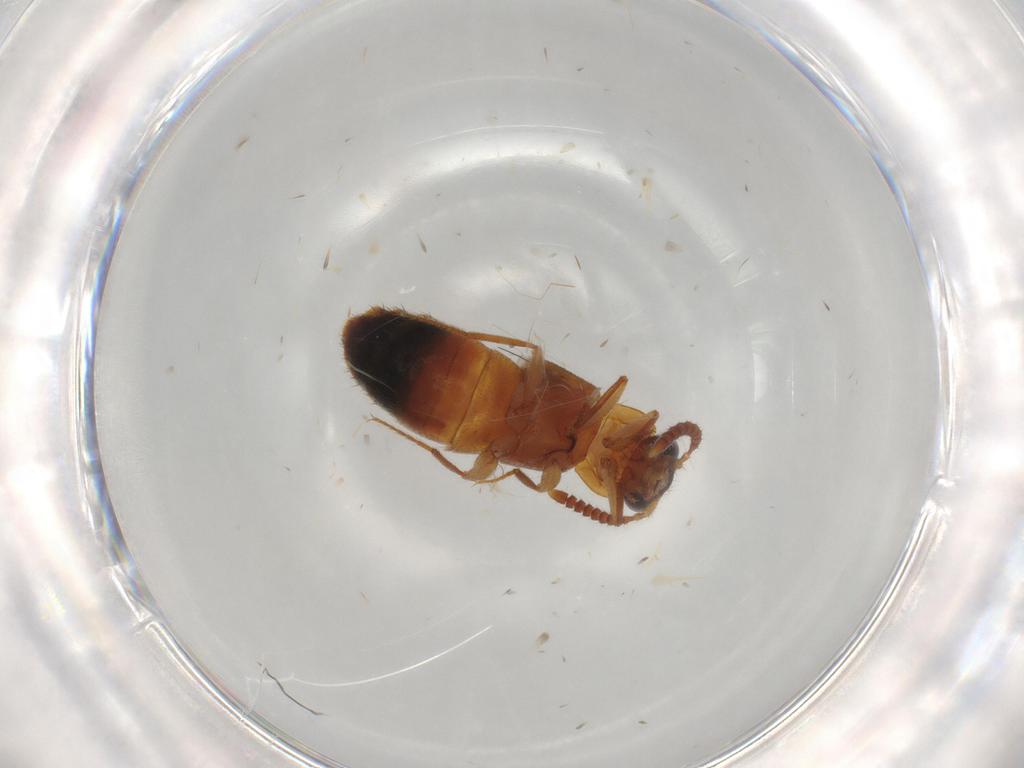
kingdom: Animalia
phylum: Arthropoda
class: Insecta
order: Coleoptera
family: Staphylinidae
